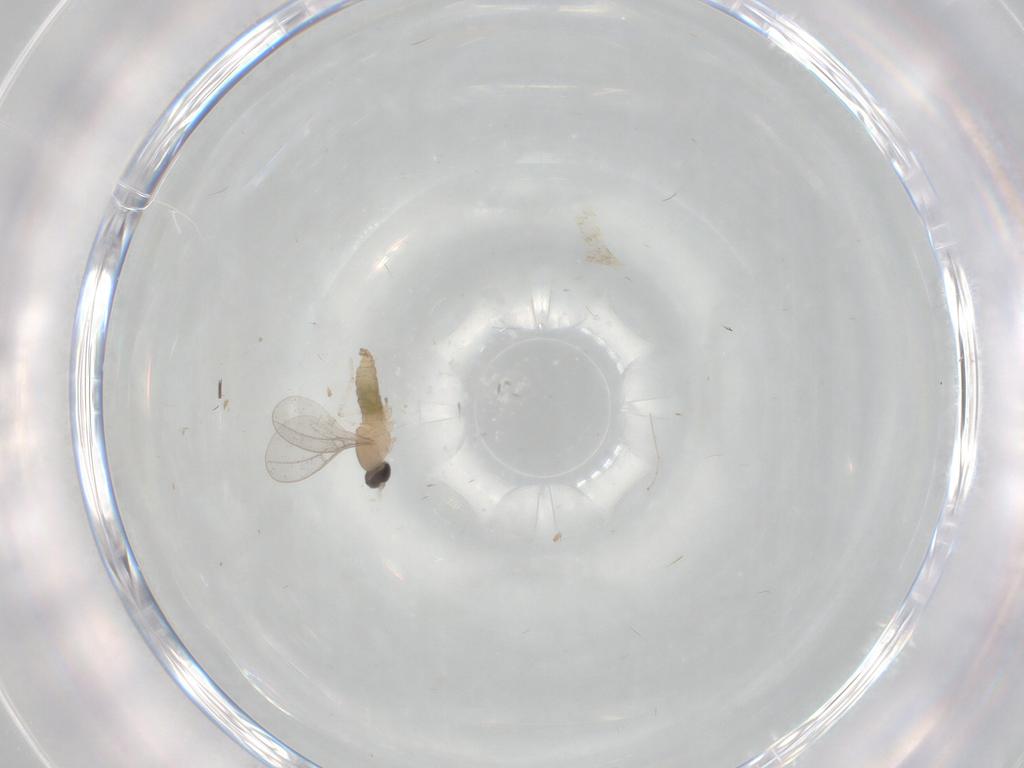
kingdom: Animalia
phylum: Arthropoda
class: Insecta
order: Diptera
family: Cecidomyiidae
